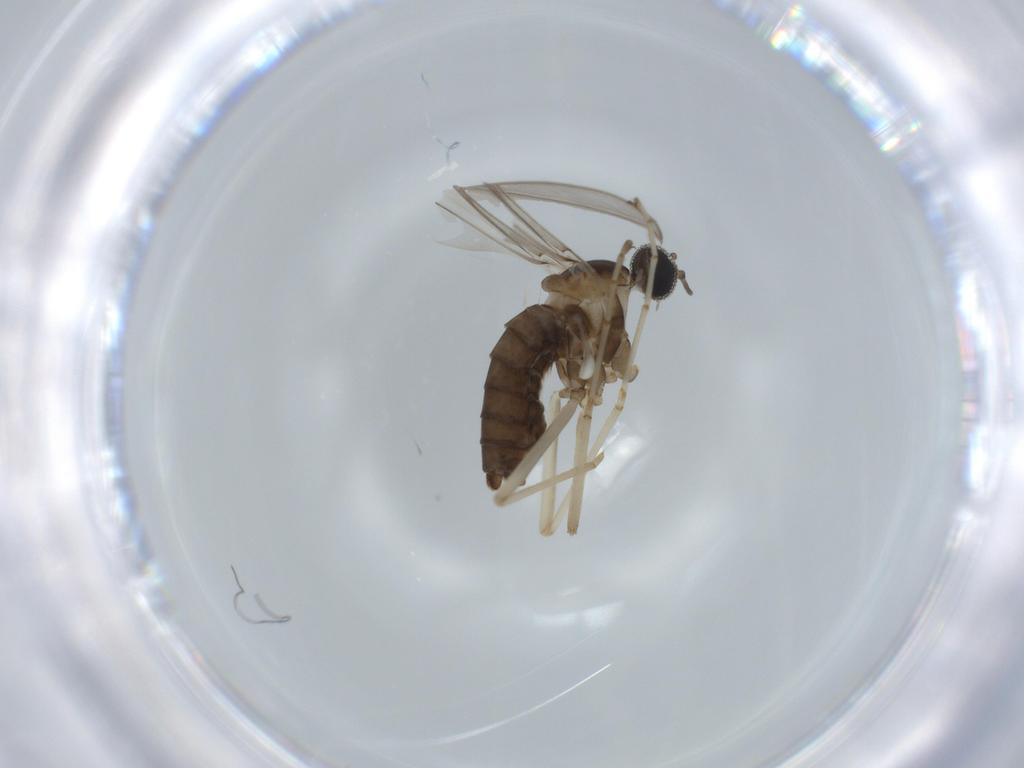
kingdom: Animalia
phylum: Arthropoda
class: Insecta
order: Diptera
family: Cecidomyiidae
